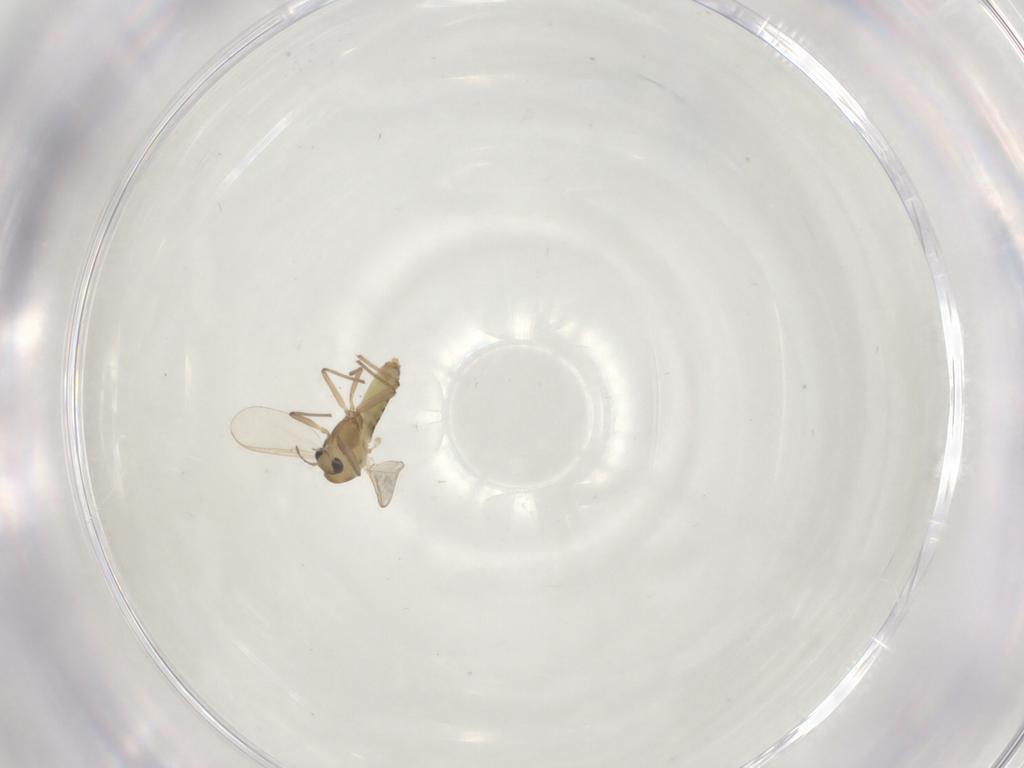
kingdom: Animalia
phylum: Arthropoda
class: Insecta
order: Diptera
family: Chironomidae
